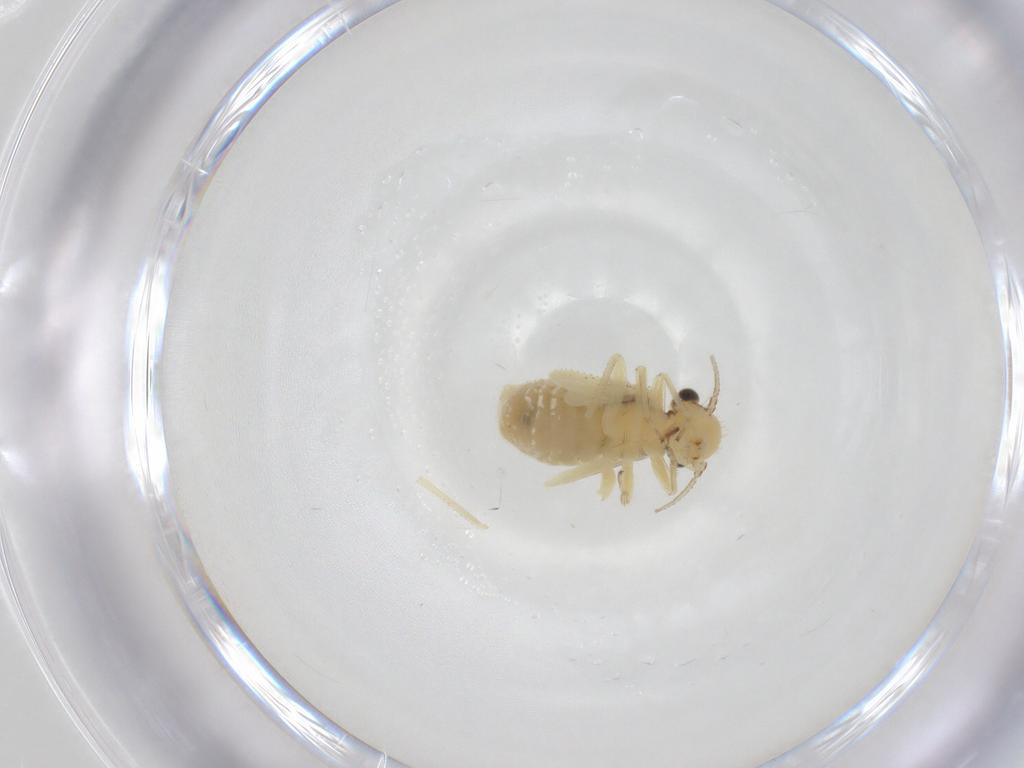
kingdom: Animalia
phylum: Arthropoda
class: Insecta
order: Psocodea
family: Pseudocaeciliidae
